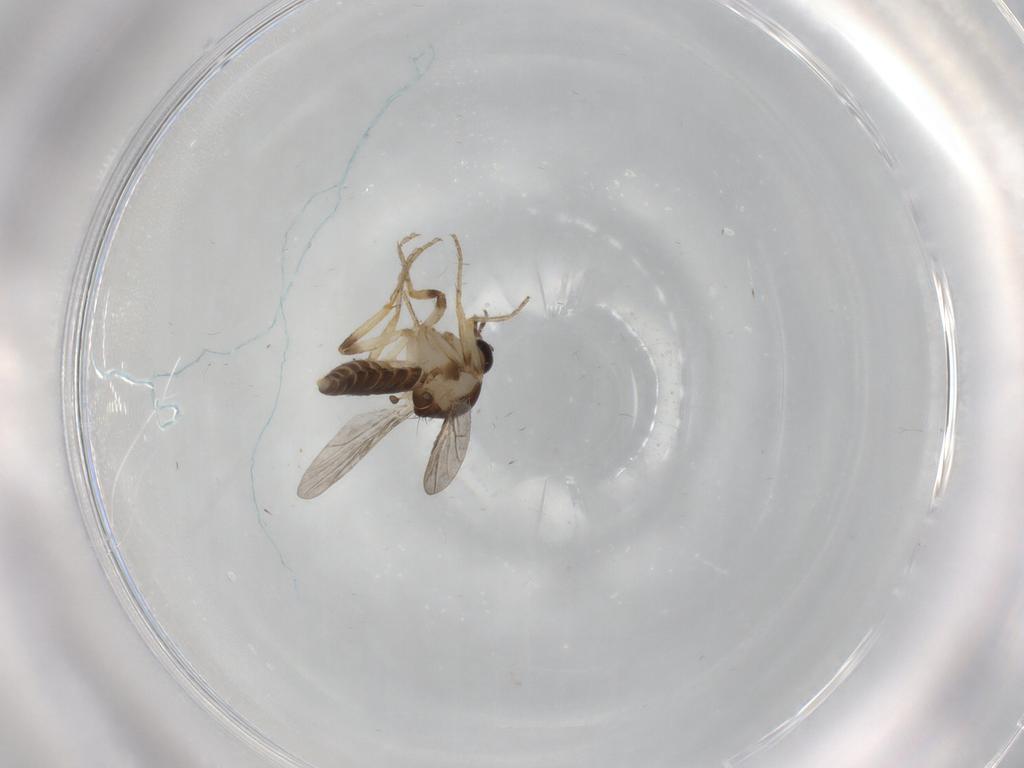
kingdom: Animalia
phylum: Arthropoda
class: Insecta
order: Diptera
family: Ceratopogonidae
